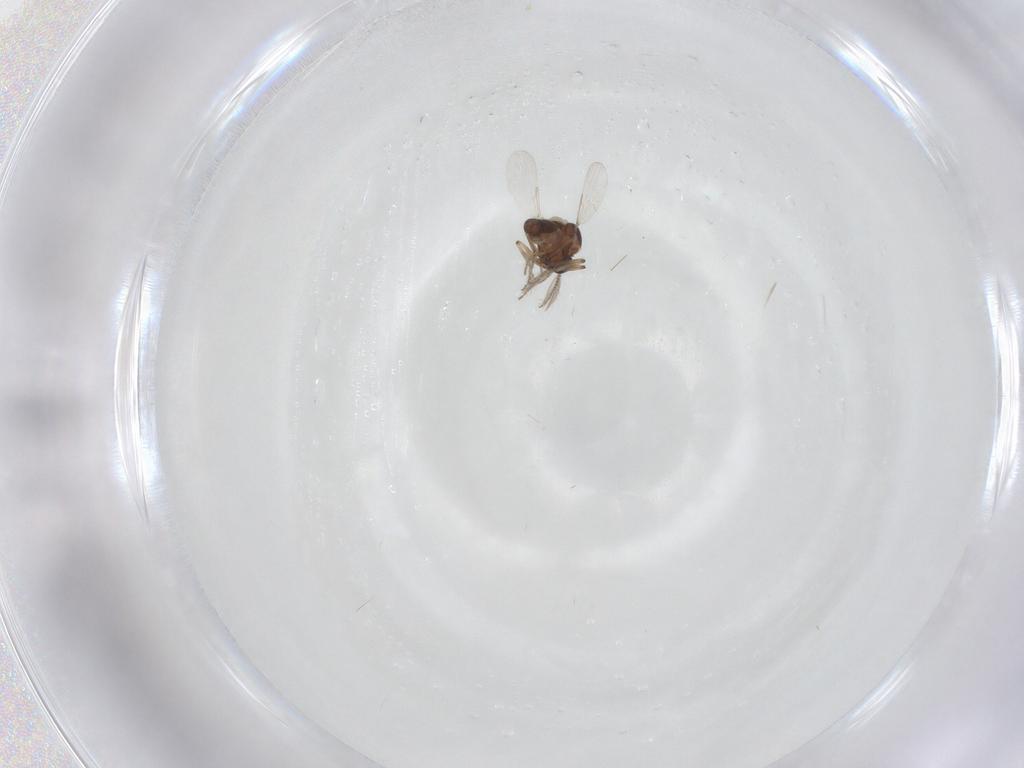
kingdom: Animalia
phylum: Arthropoda
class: Insecta
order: Diptera
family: Ceratopogonidae
